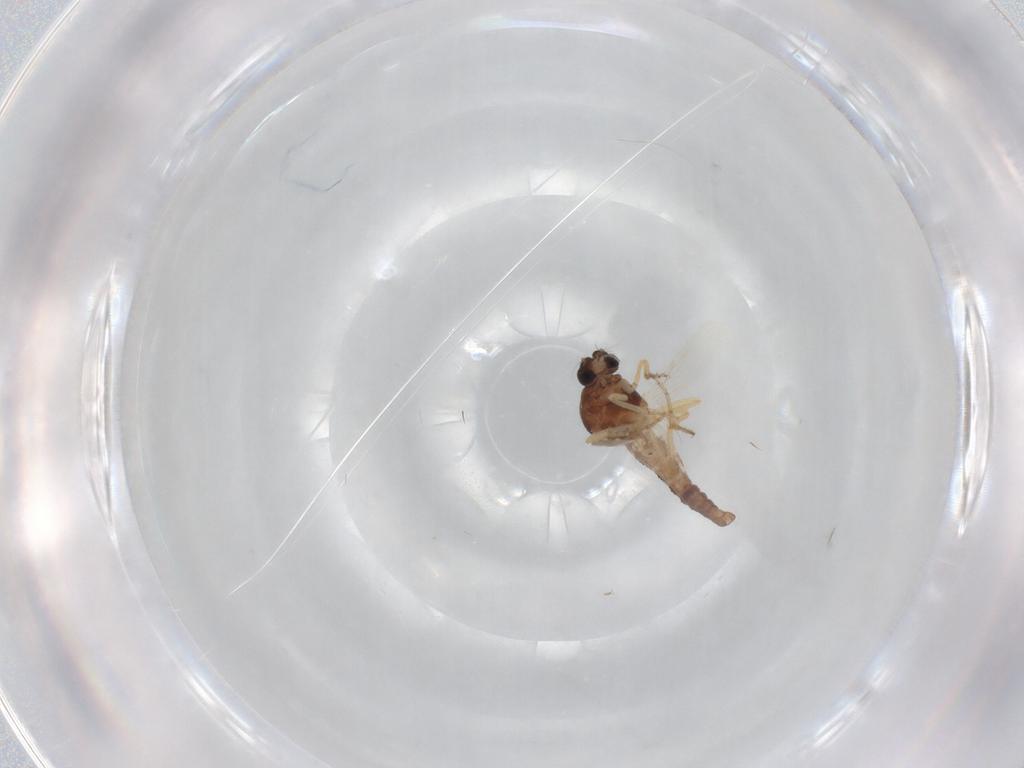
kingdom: Animalia
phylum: Arthropoda
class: Insecta
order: Diptera
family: Ceratopogonidae
